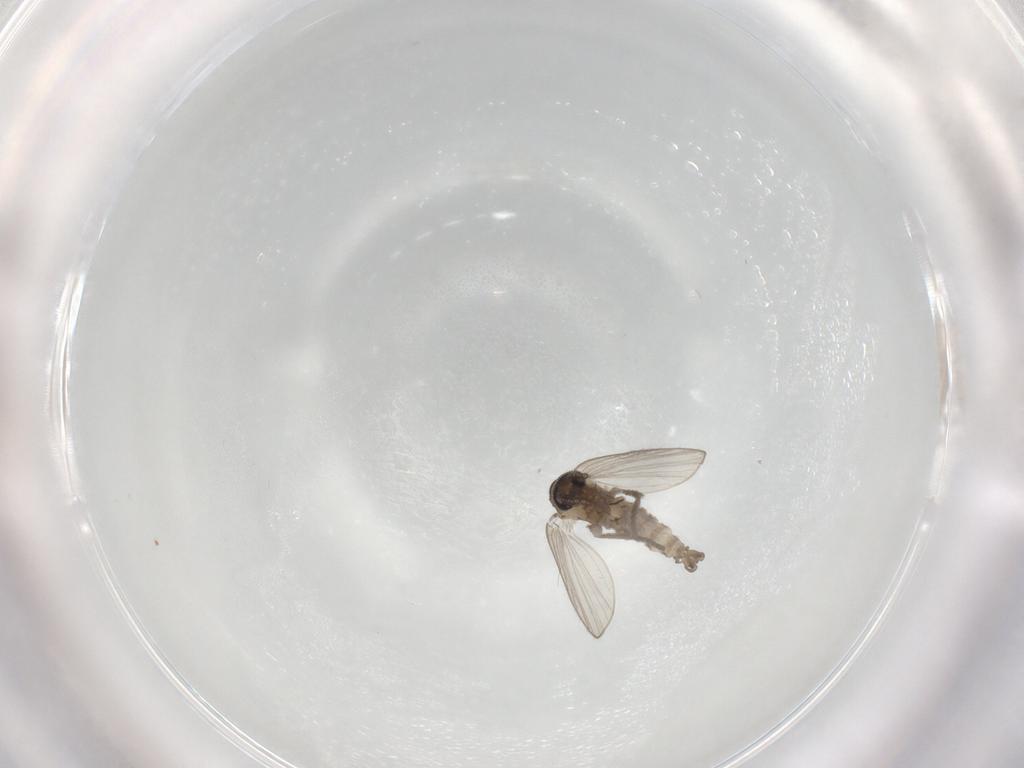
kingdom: Animalia
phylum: Arthropoda
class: Insecta
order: Diptera
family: Psychodidae
